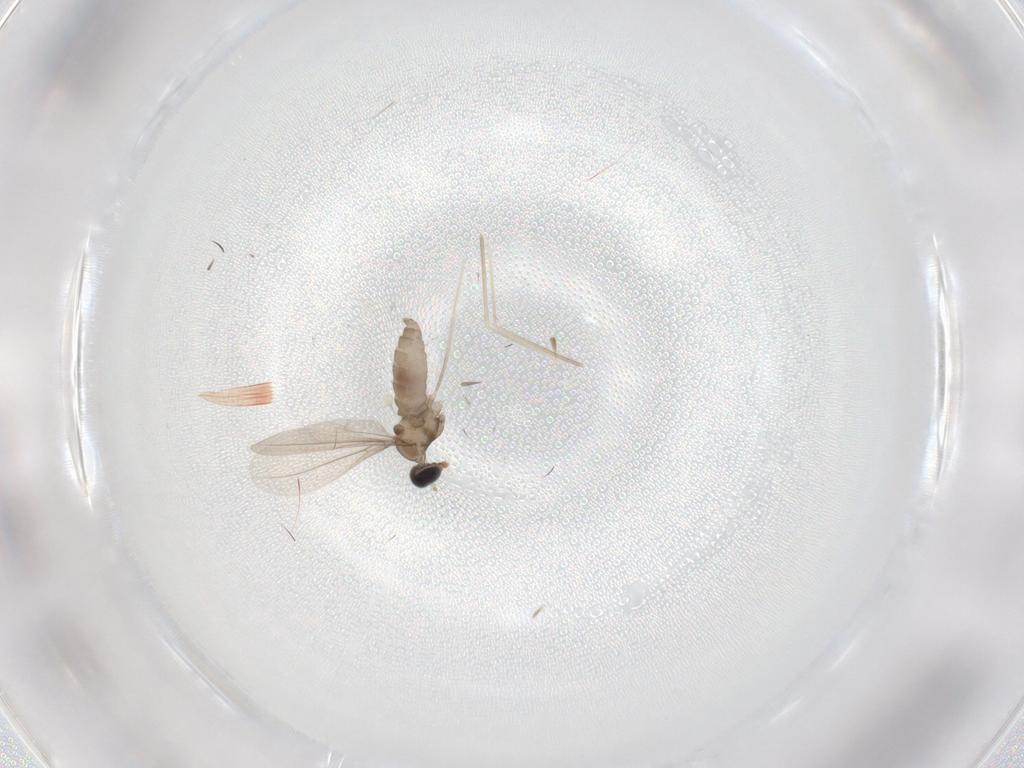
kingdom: Animalia
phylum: Arthropoda
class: Insecta
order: Diptera
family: Cecidomyiidae
